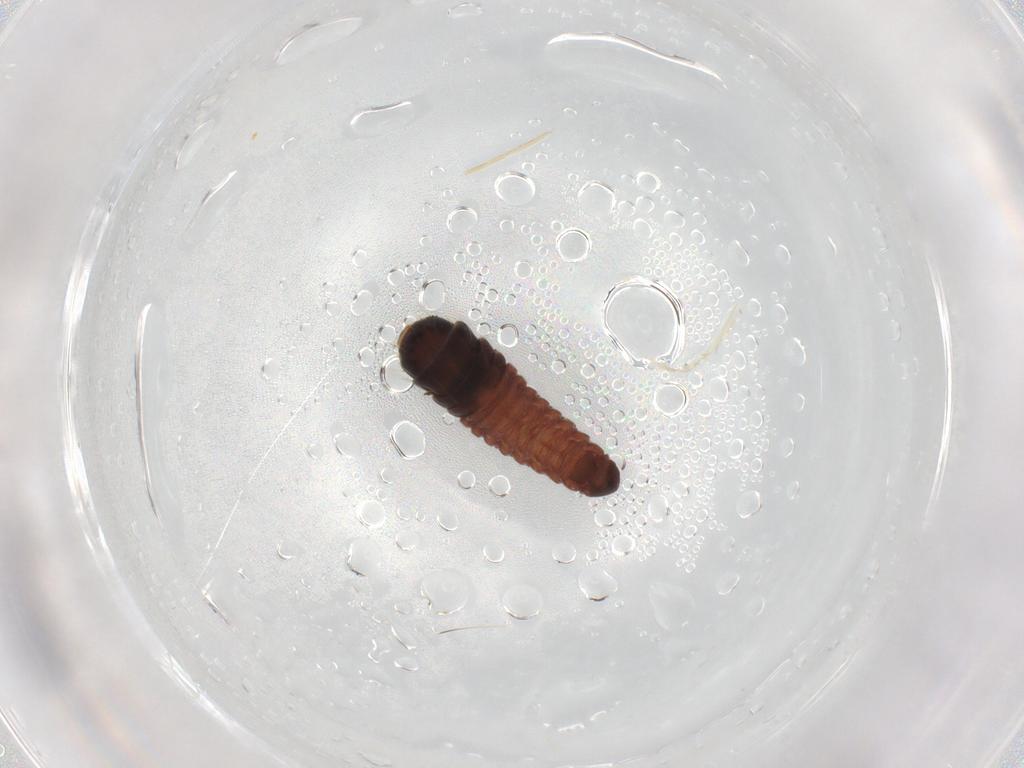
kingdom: Animalia
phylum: Arthropoda
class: Insecta
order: Lepidoptera
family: Psychidae
